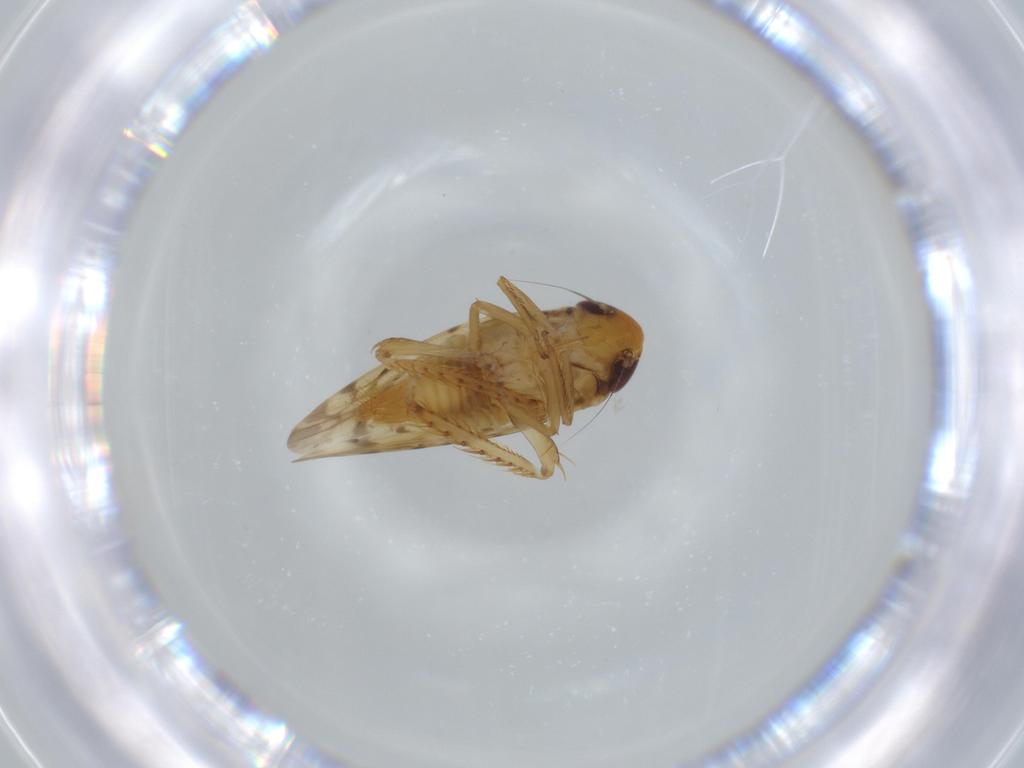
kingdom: Animalia
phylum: Arthropoda
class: Insecta
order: Hemiptera
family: Cicadellidae
